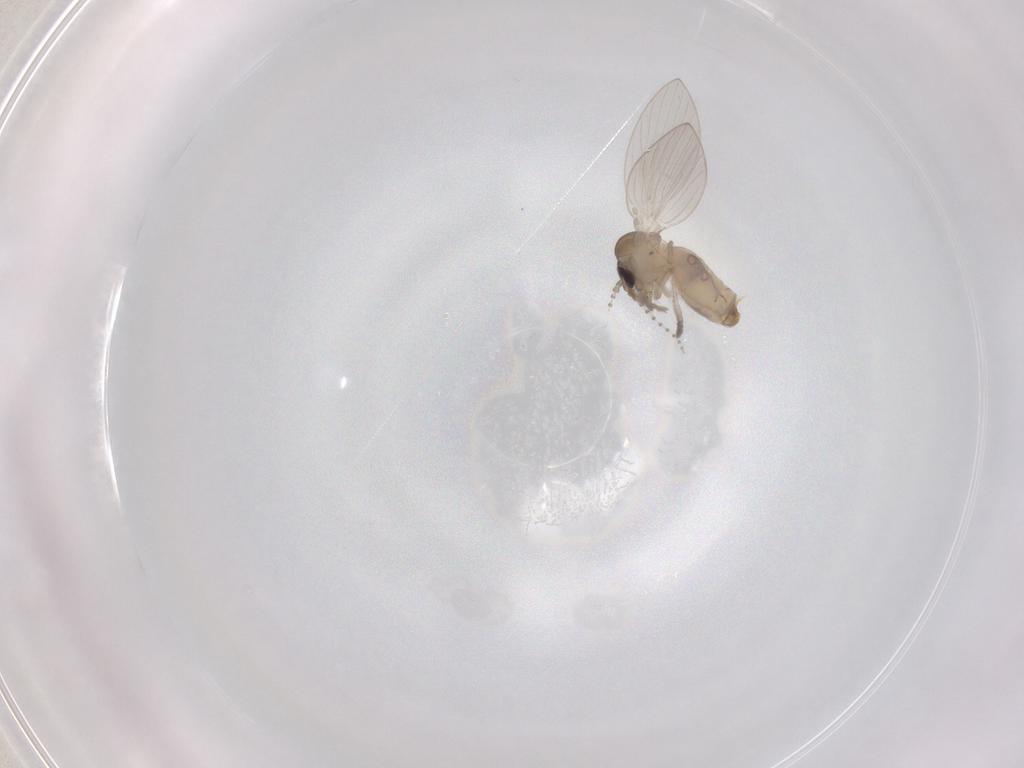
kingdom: Animalia
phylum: Arthropoda
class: Insecta
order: Diptera
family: Psychodidae
